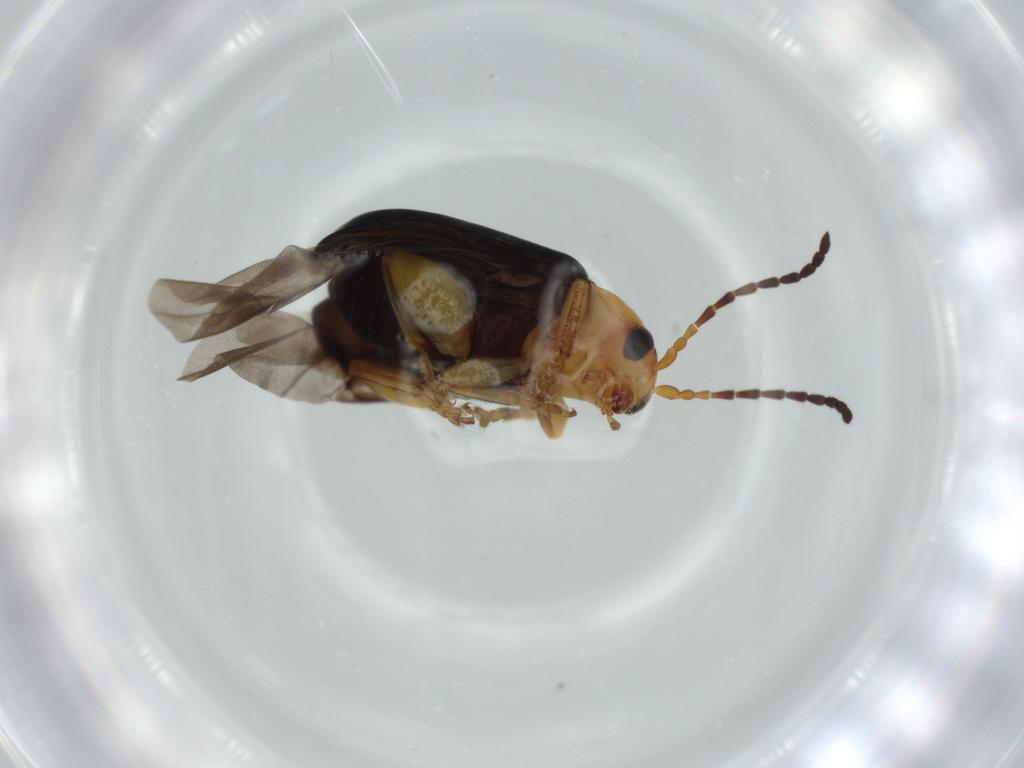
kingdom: Animalia
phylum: Arthropoda
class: Insecta
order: Coleoptera
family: Chrysomelidae
